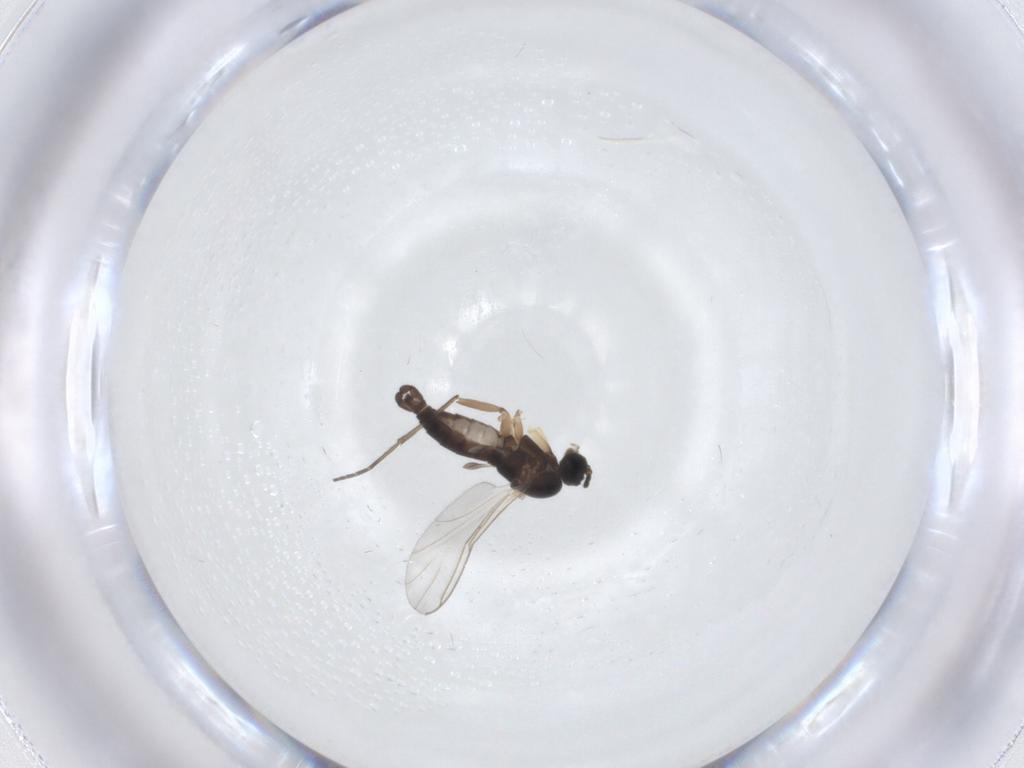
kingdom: Animalia
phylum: Arthropoda
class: Insecta
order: Diptera
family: Sciaridae
